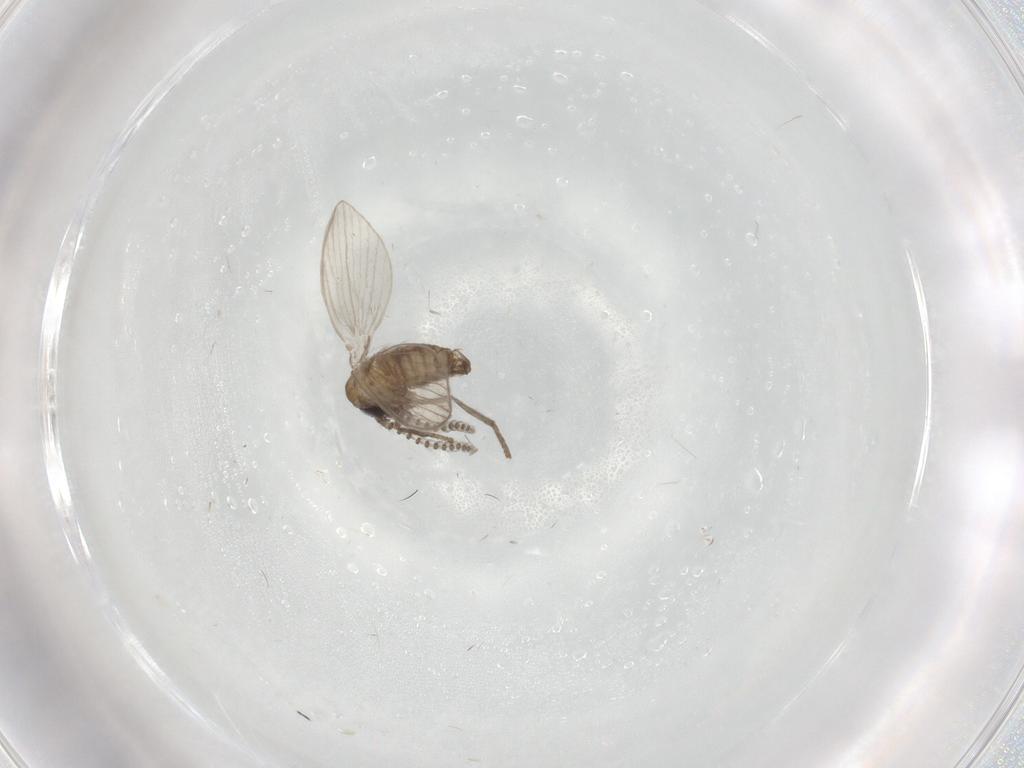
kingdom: Animalia
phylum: Arthropoda
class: Insecta
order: Diptera
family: Psychodidae
